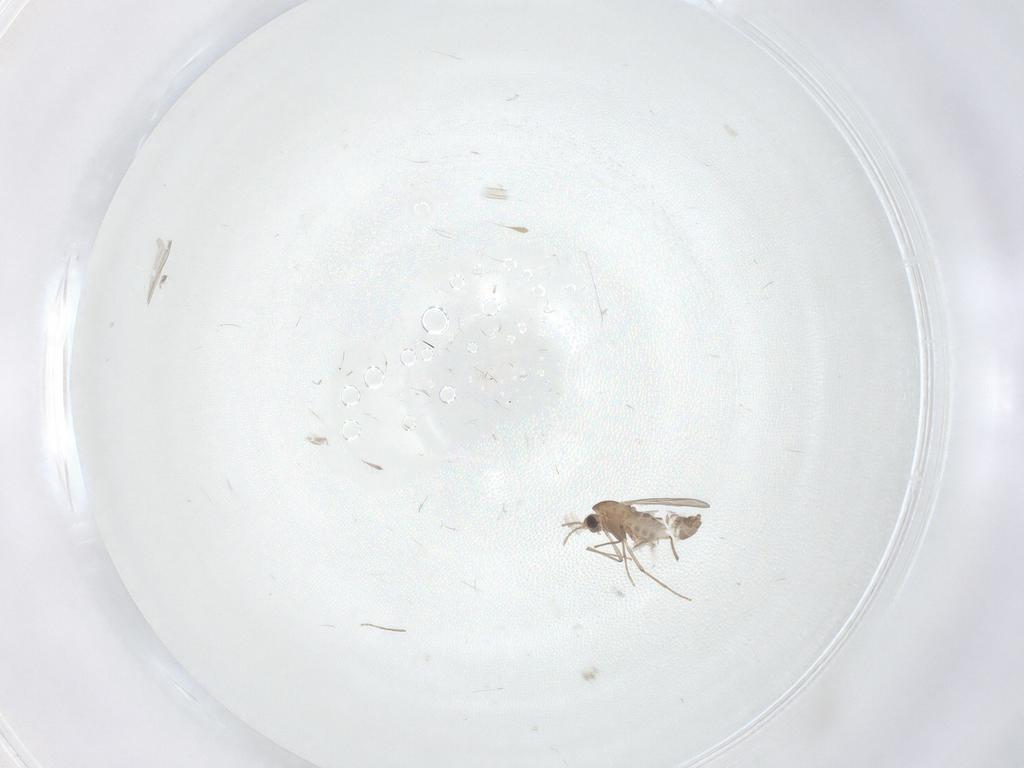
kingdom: Animalia
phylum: Arthropoda
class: Insecta
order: Diptera
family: Chironomidae
